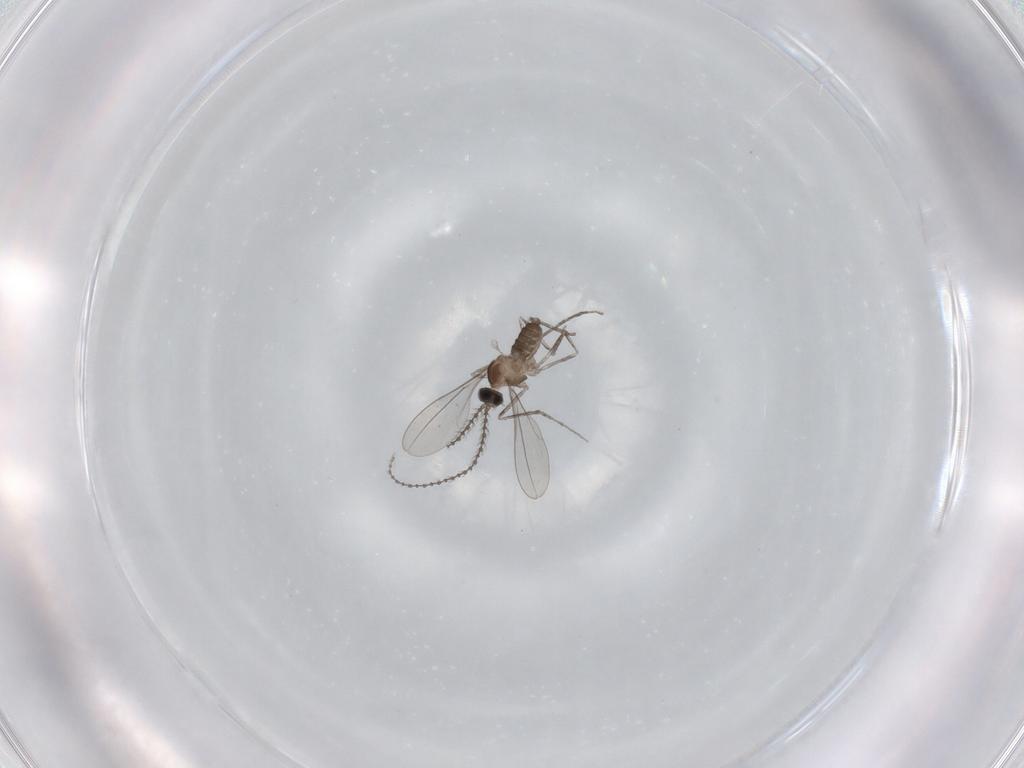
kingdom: Animalia
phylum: Arthropoda
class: Insecta
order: Diptera
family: Cecidomyiidae
